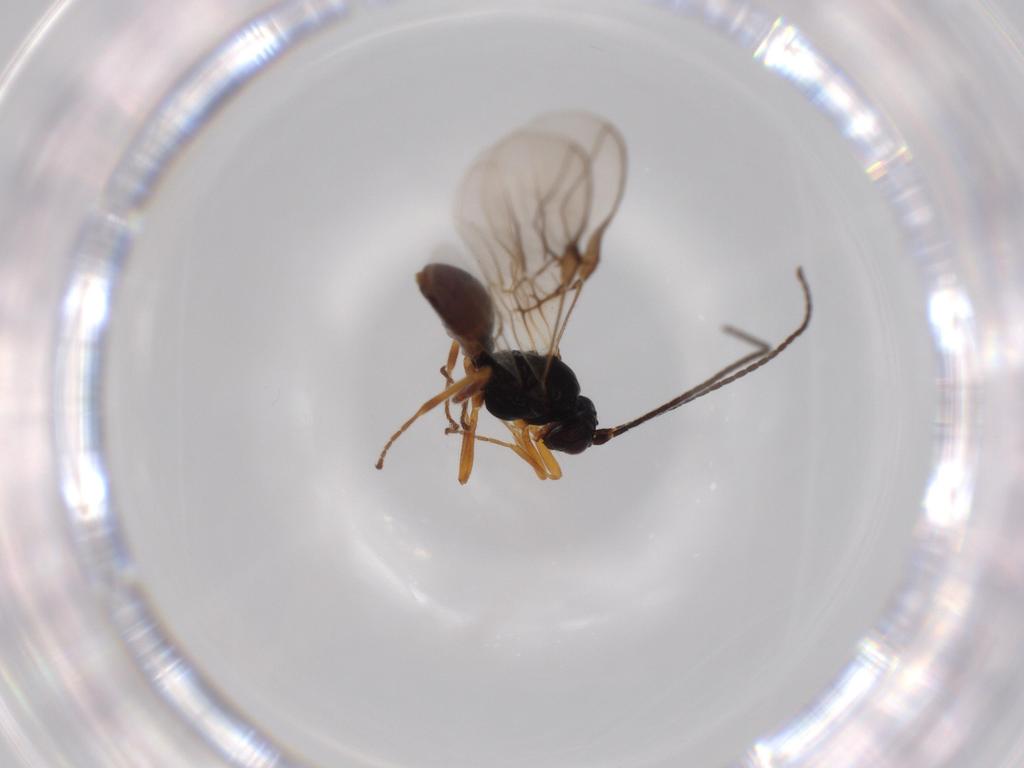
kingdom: Animalia
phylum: Arthropoda
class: Insecta
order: Hymenoptera
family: Braconidae
